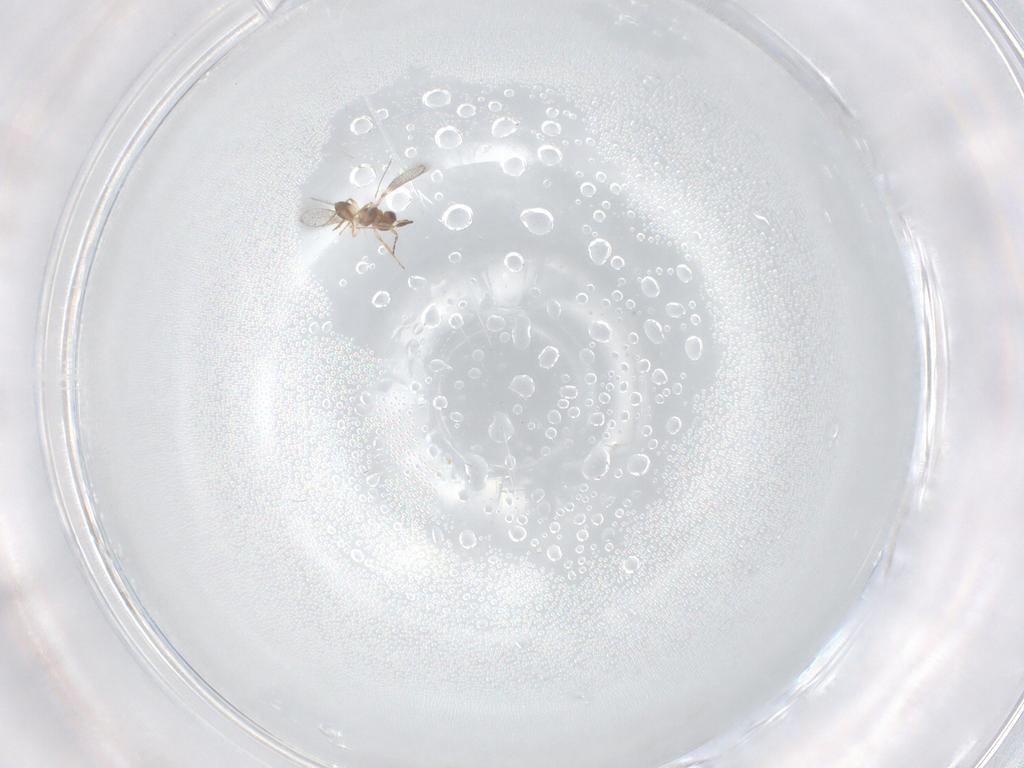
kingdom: Animalia
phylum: Arthropoda
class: Insecta
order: Hymenoptera
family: Mymaridae
